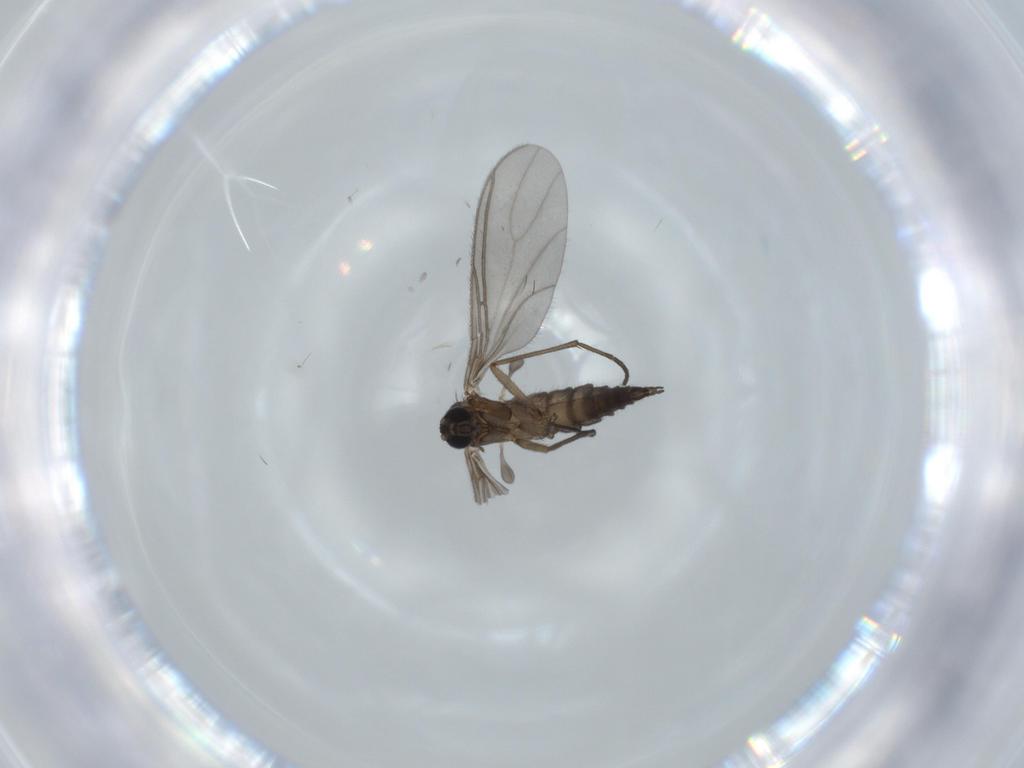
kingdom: Animalia
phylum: Arthropoda
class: Insecta
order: Diptera
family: Sciaridae
